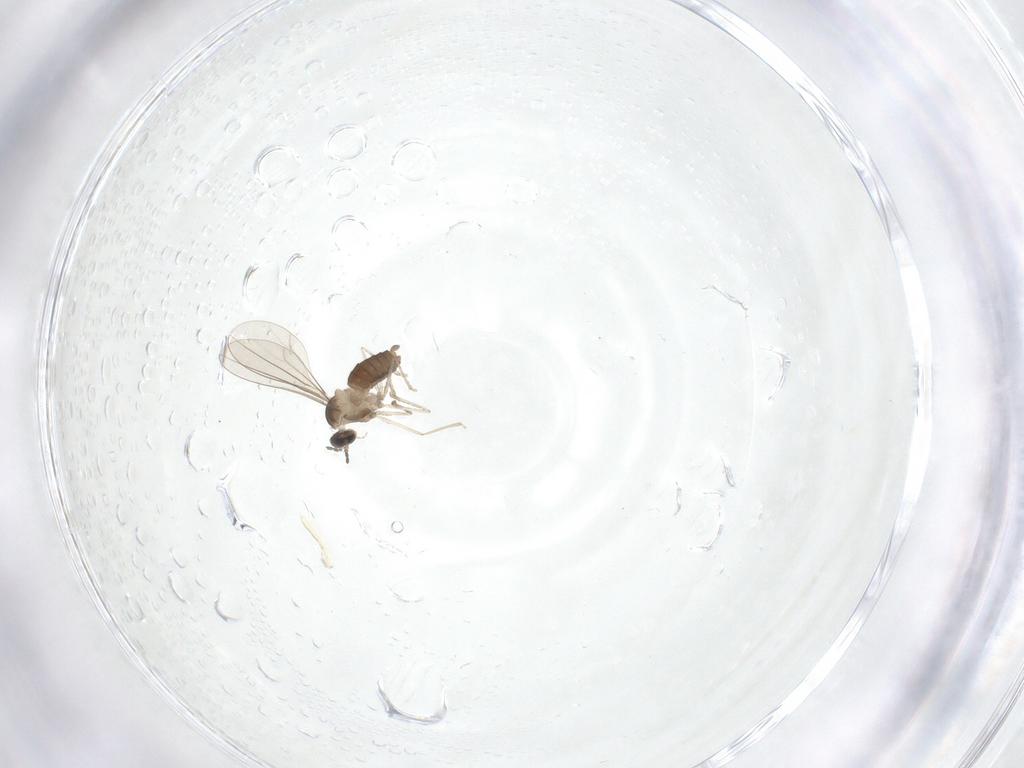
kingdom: Animalia
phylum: Arthropoda
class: Insecta
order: Diptera
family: Cecidomyiidae
